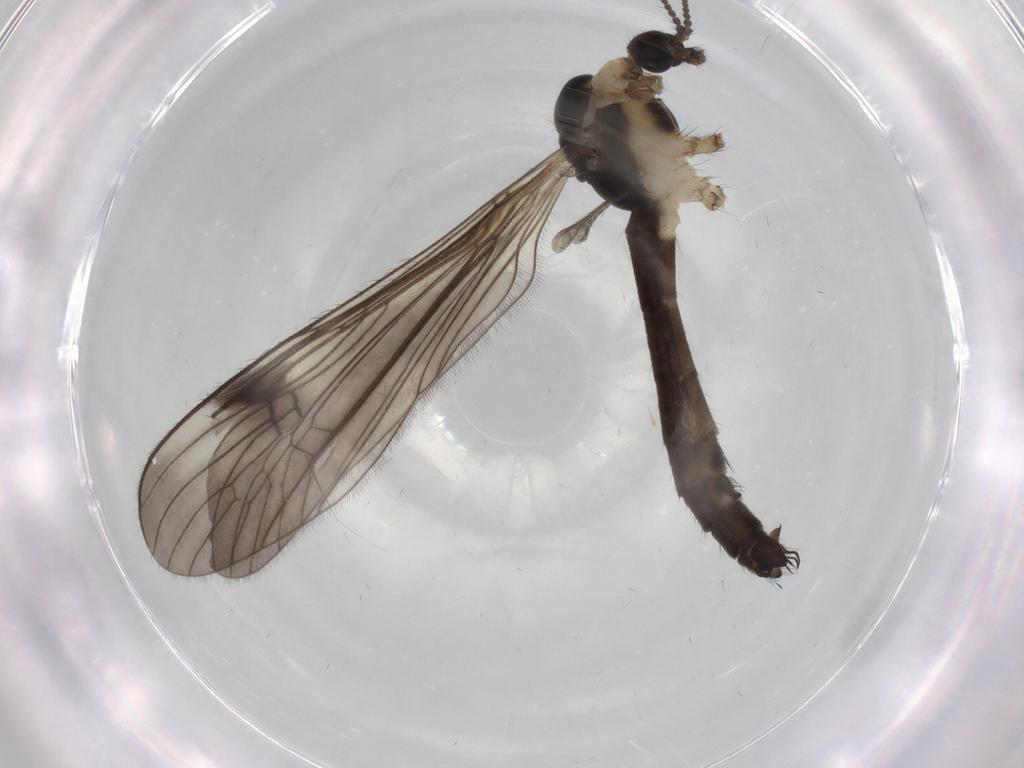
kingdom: Animalia
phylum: Arthropoda
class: Insecta
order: Diptera
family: Limoniidae
